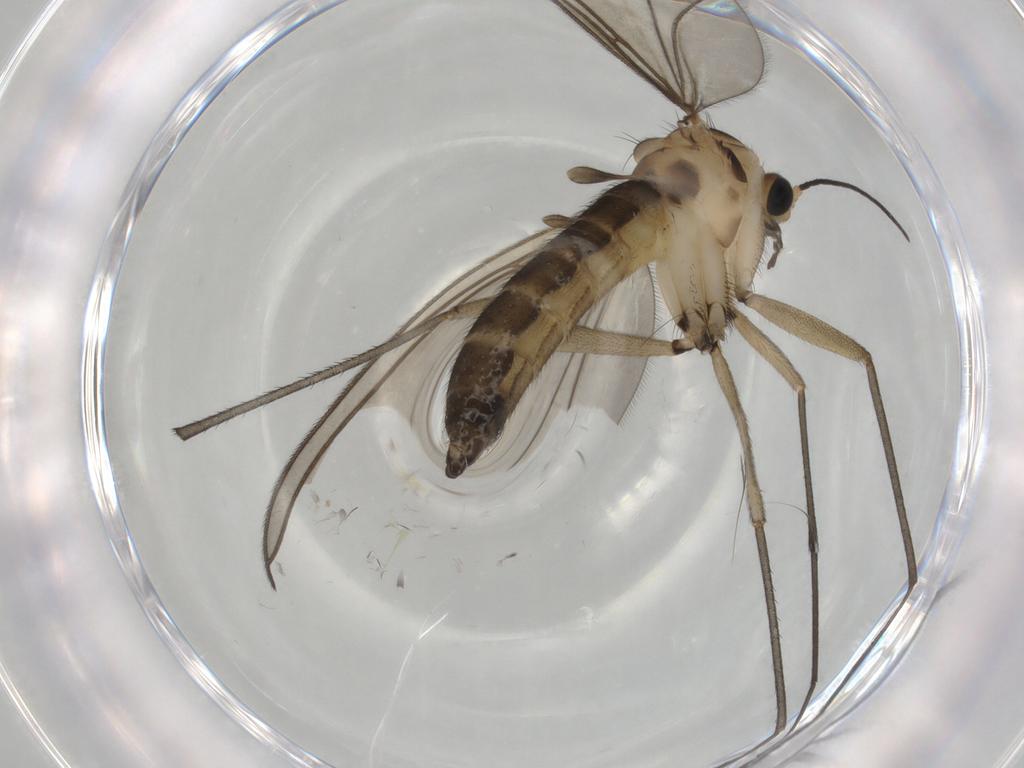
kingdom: Animalia
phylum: Arthropoda
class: Insecta
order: Diptera
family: Sciaridae
